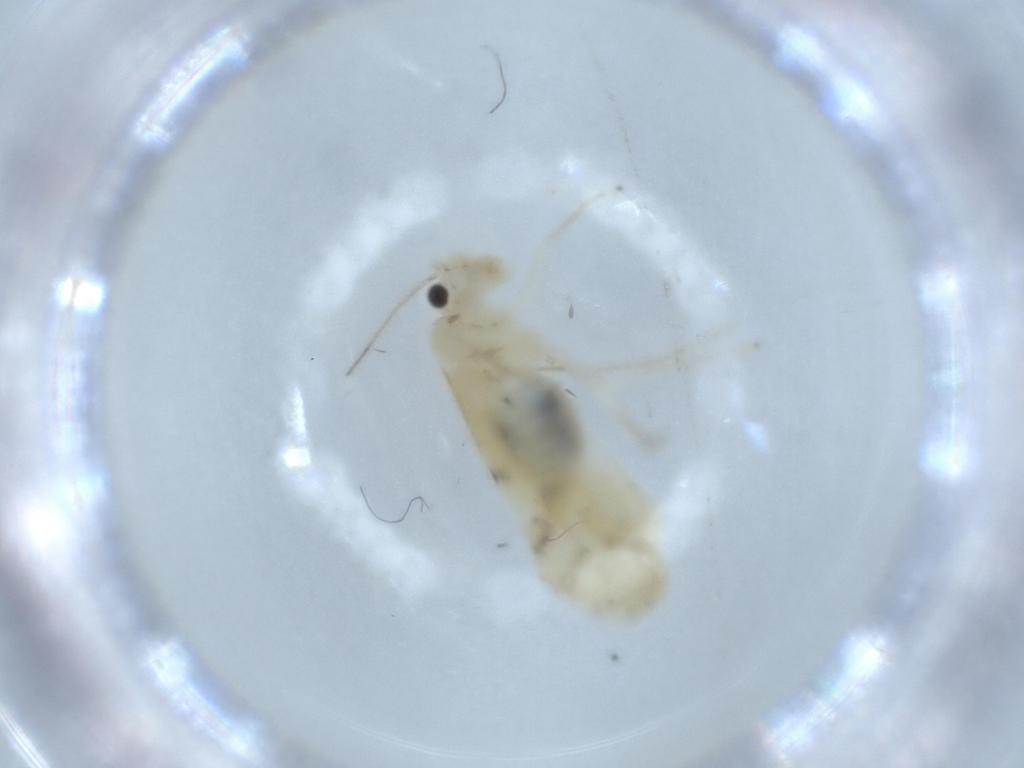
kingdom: Animalia
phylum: Arthropoda
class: Insecta
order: Psocodea
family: Caeciliusidae
